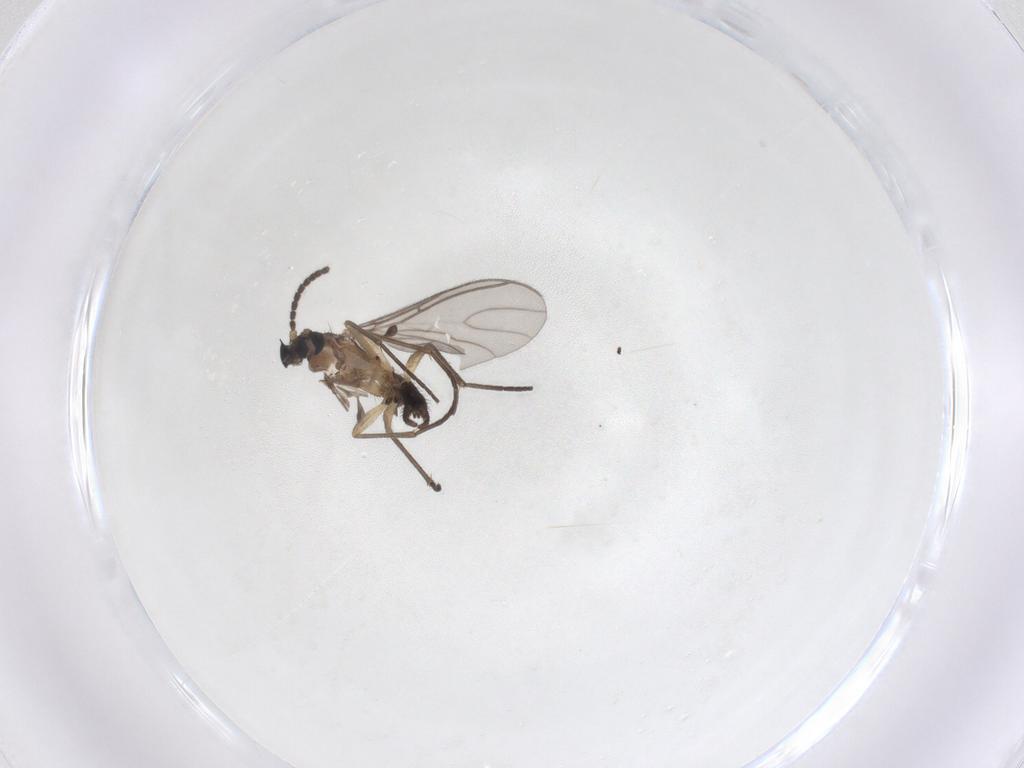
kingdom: Animalia
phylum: Arthropoda
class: Insecta
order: Diptera
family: Sciaridae
